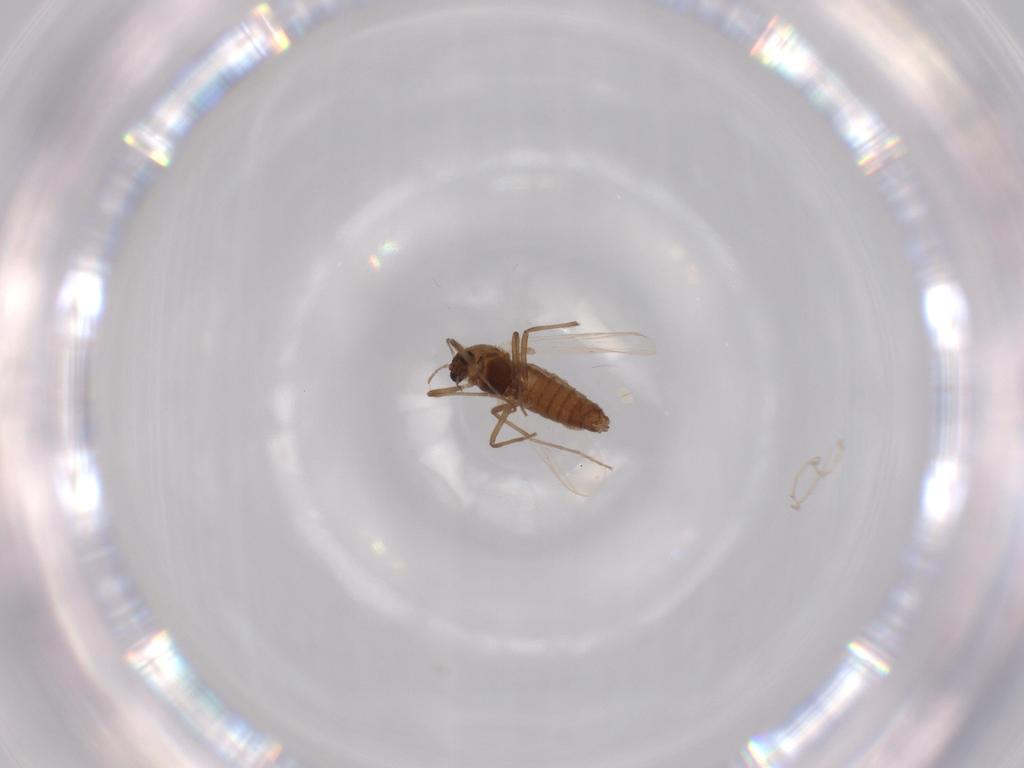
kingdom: Animalia
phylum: Arthropoda
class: Insecta
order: Diptera
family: Chironomidae
